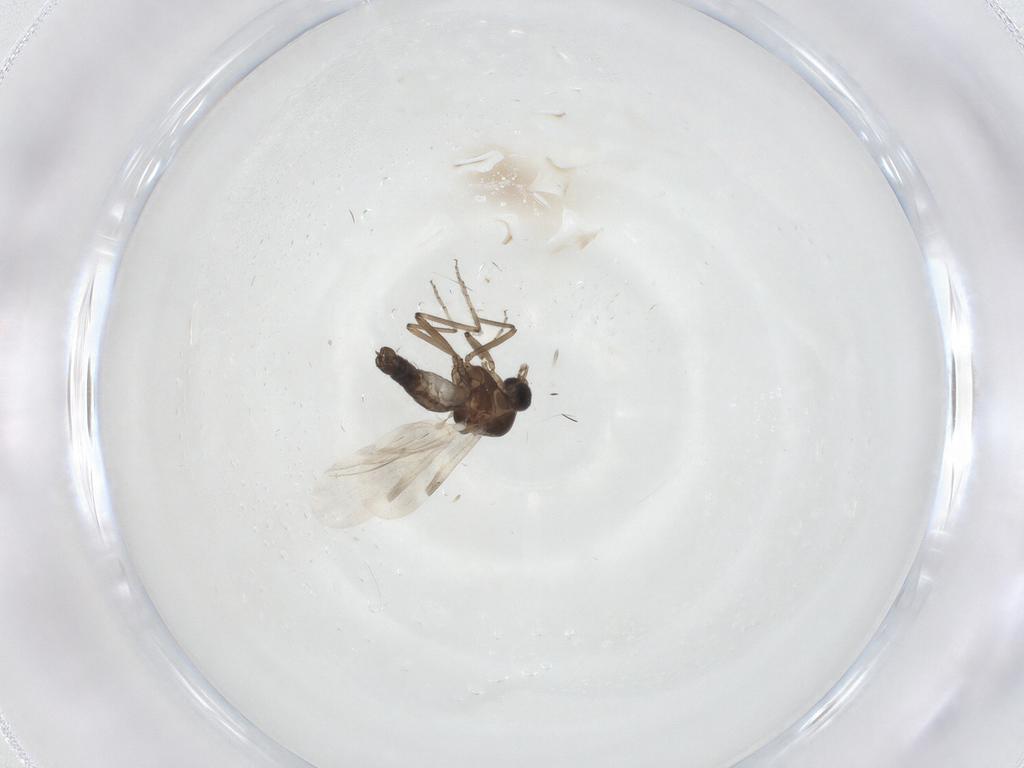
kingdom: Animalia
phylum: Arthropoda
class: Insecta
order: Diptera
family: Ceratopogonidae
